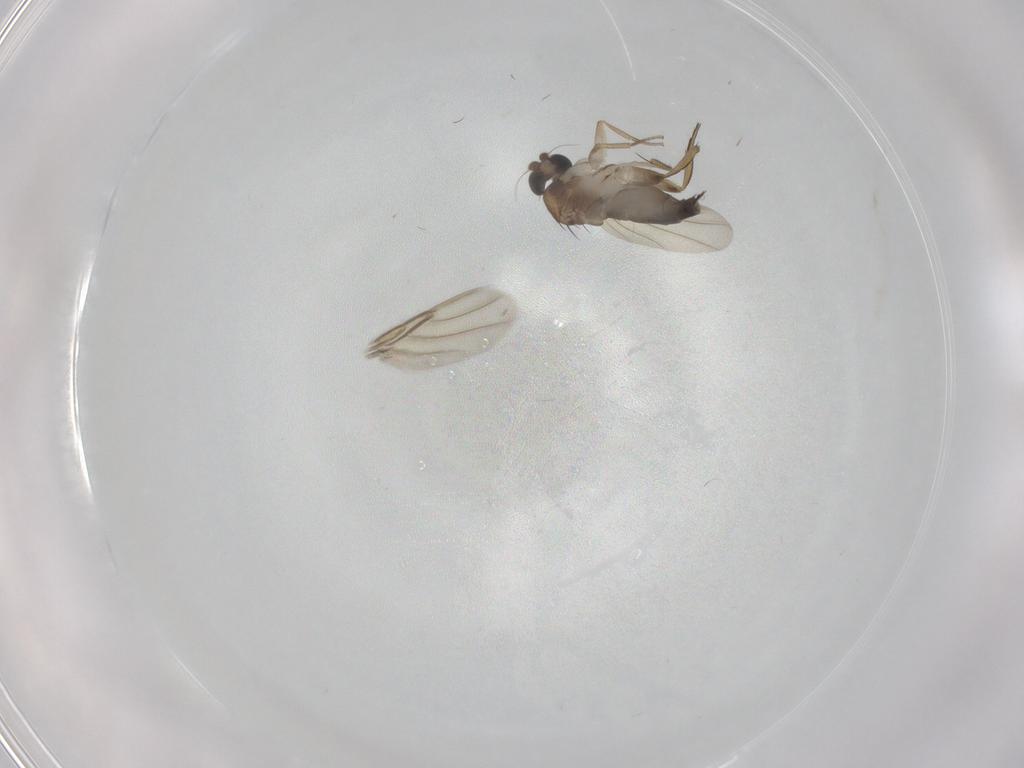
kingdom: Animalia
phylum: Arthropoda
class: Insecta
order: Diptera
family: Phoridae
